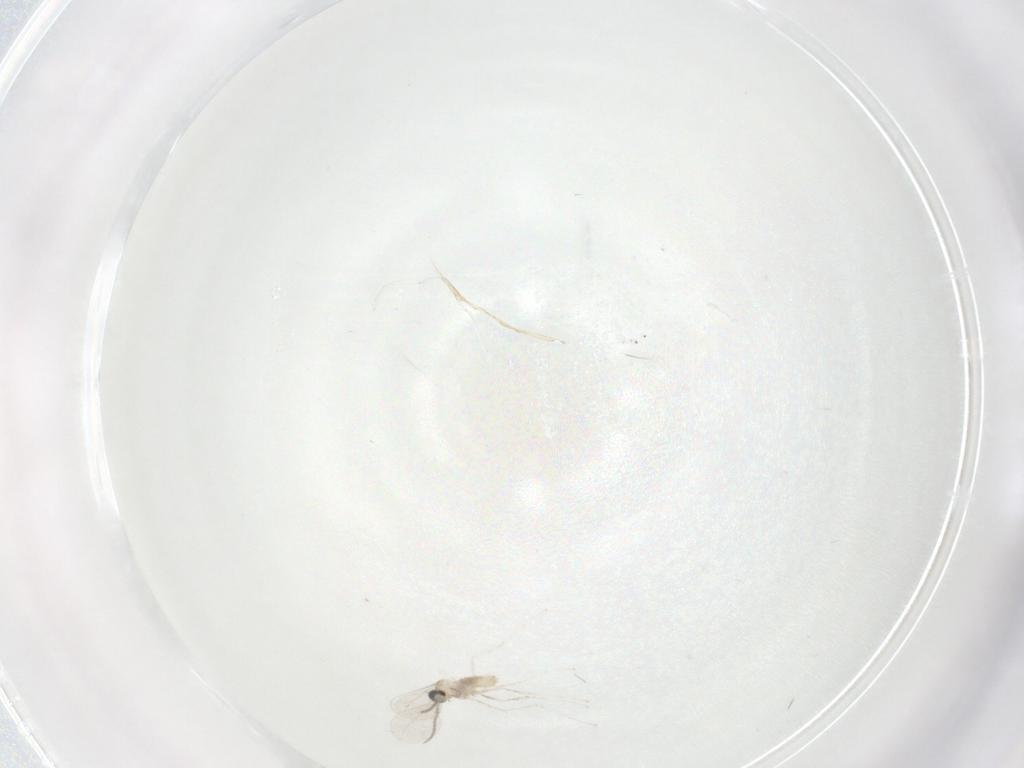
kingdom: Animalia
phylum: Arthropoda
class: Insecta
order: Diptera
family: Cecidomyiidae
